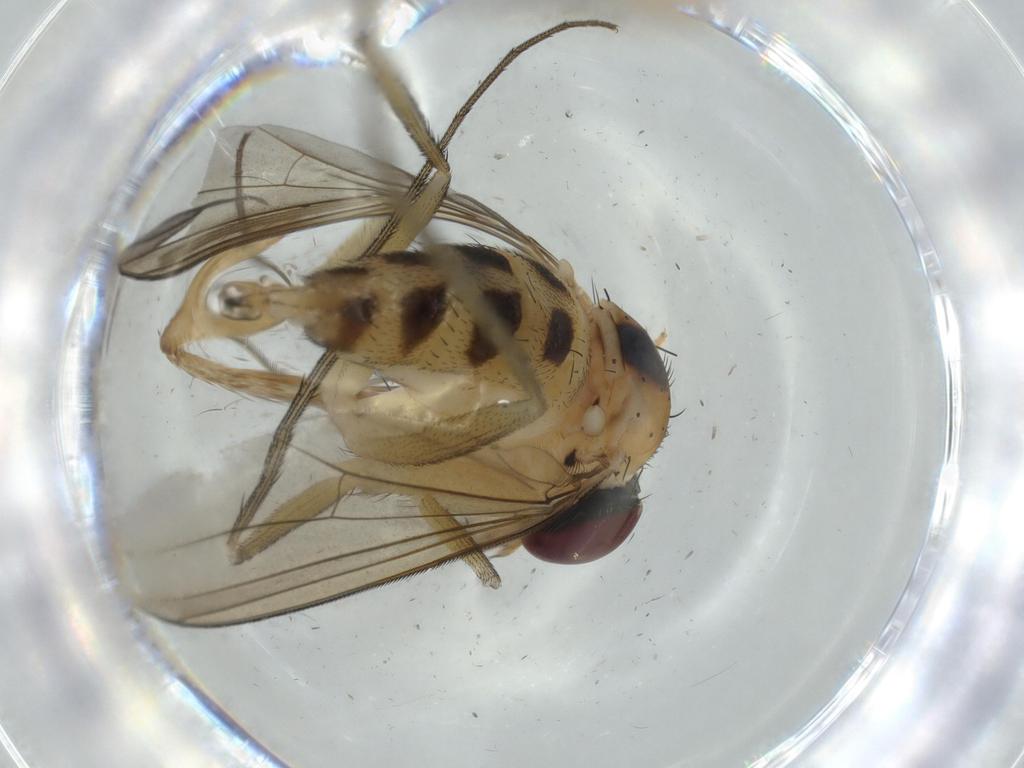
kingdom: Animalia
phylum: Arthropoda
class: Insecta
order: Diptera
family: Dolichopodidae
